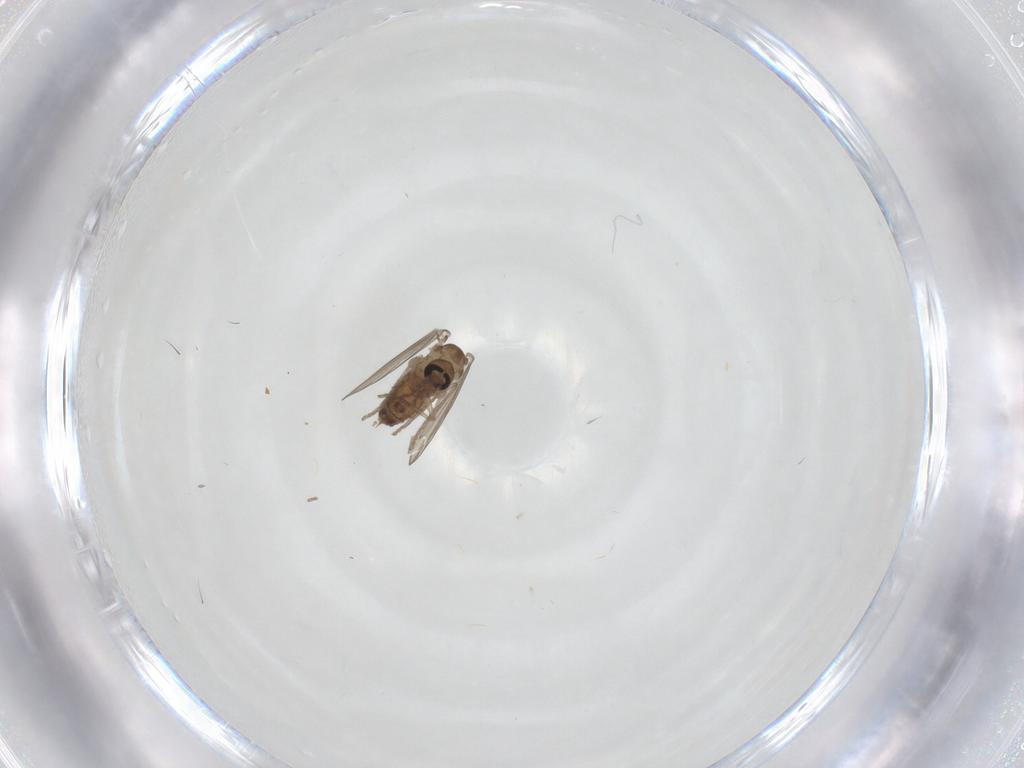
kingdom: Animalia
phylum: Arthropoda
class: Insecta
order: Diptera
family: Psychodidae
